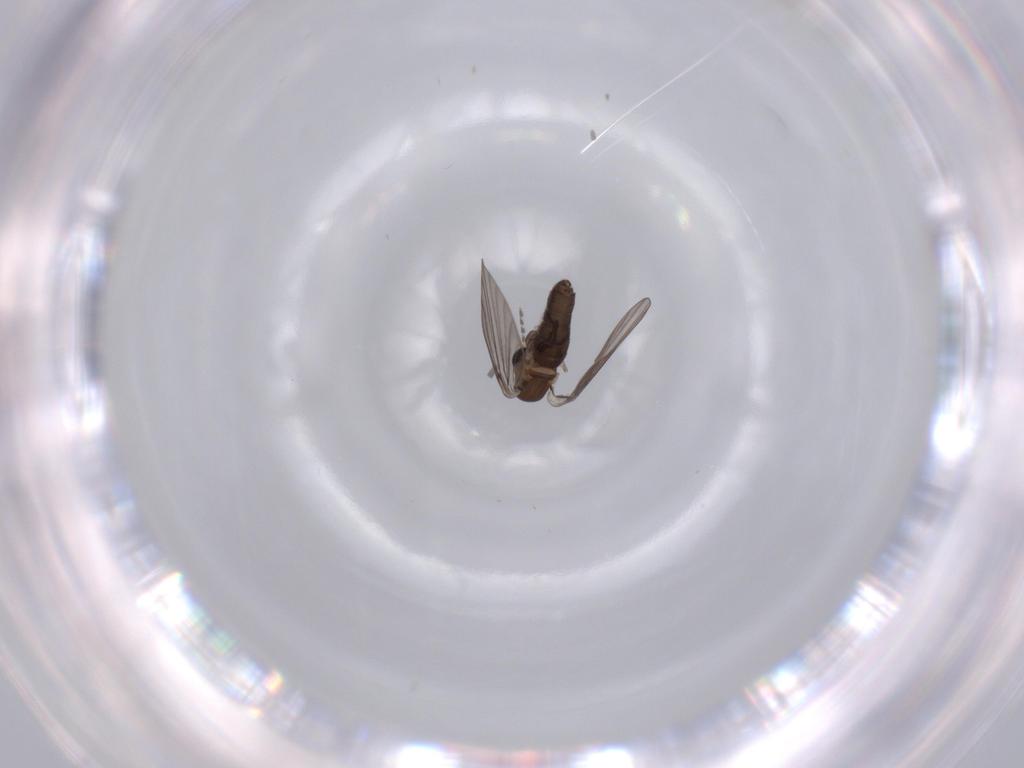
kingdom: Animalia
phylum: Arthropoda
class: Insecta
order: Diptera
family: Psychodidae
